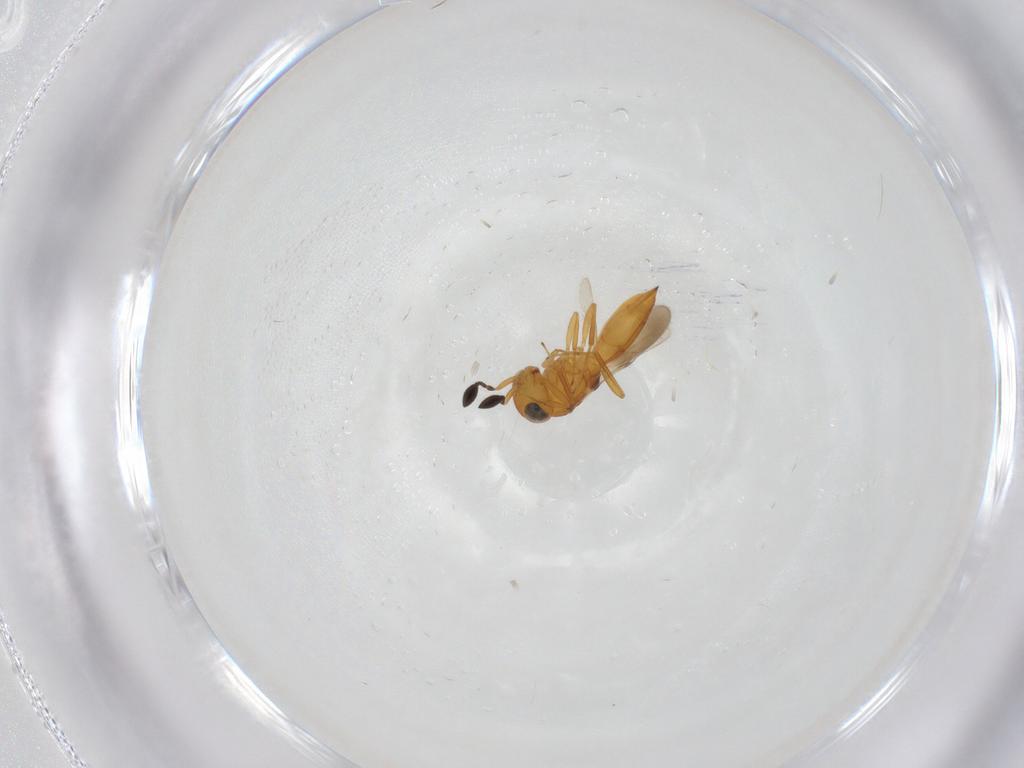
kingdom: Animalia
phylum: Arthropoda
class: Insecta
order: Hymenoptera
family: Scelionidae
